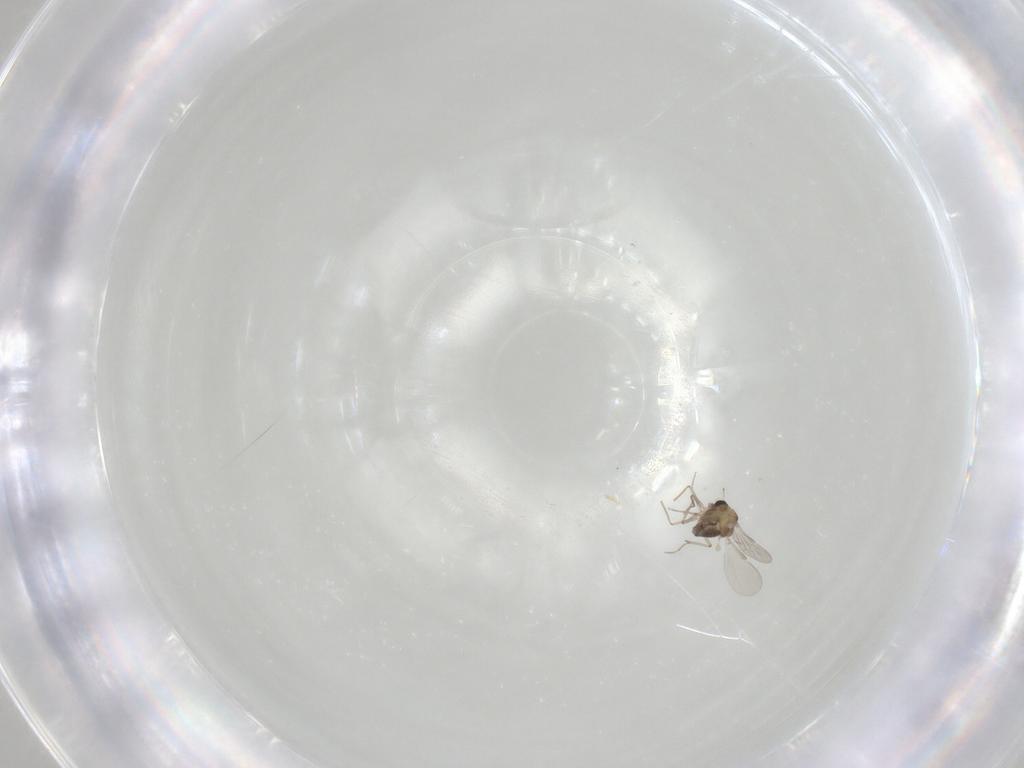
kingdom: Animalia
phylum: Arthropoda
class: Insecta
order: Diptera
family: Chironomidae
